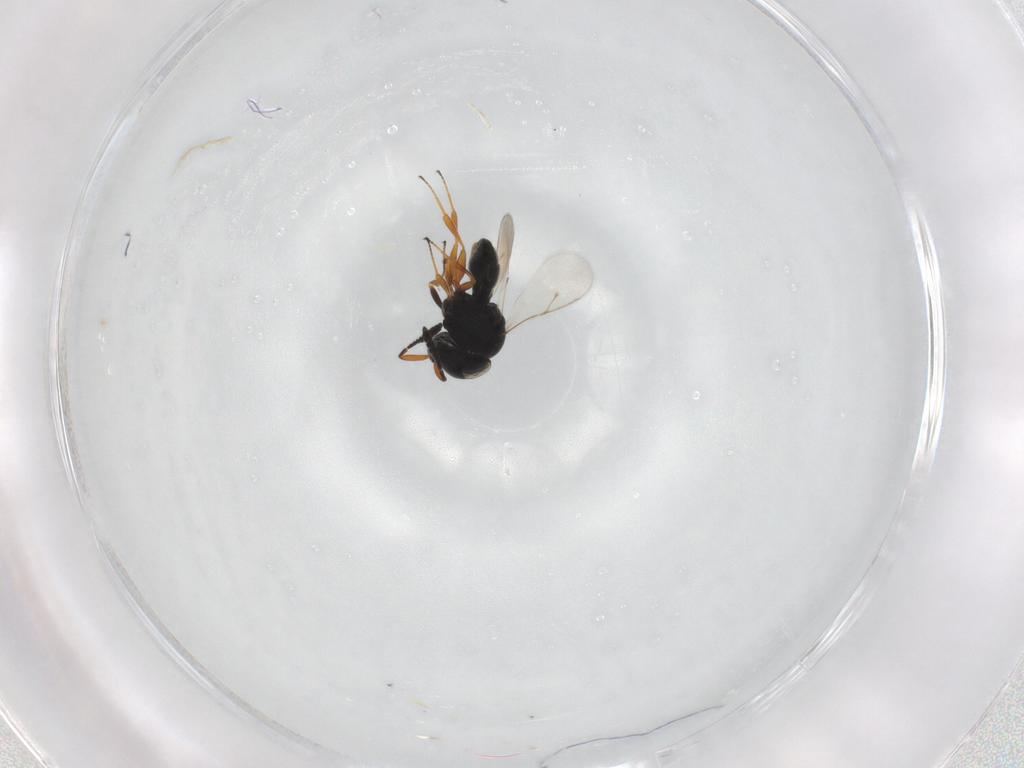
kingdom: Animalia
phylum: Arthropoda
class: Insecta
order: Hymenoptera
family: Scelionidae
